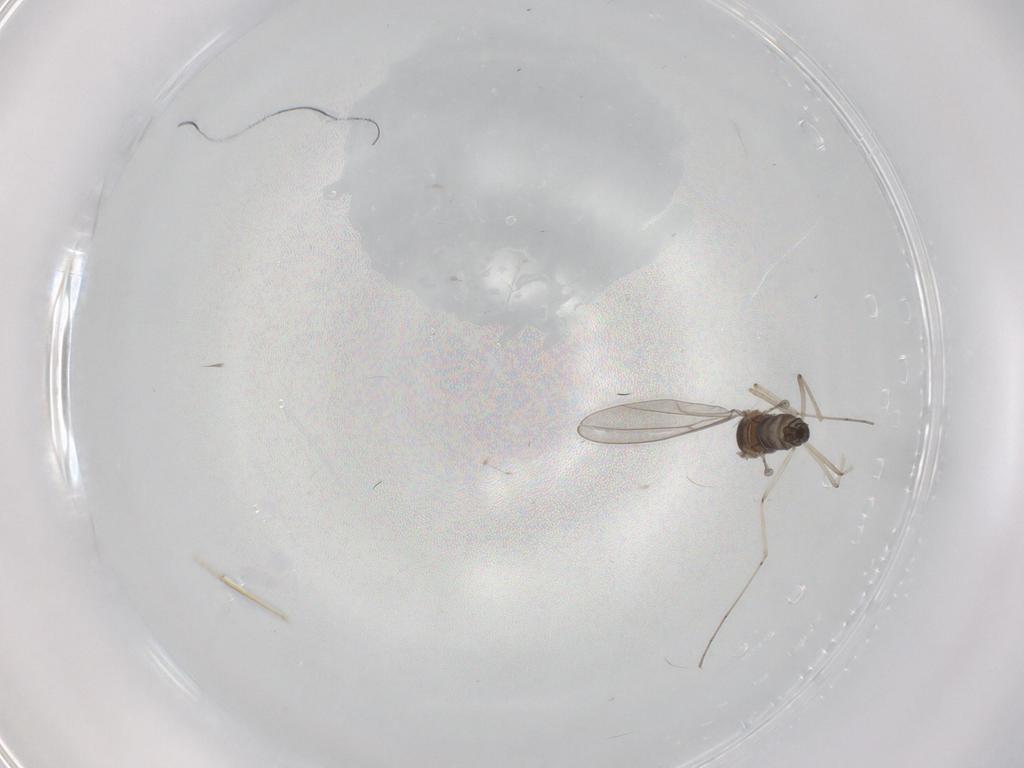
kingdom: Animalia
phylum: Arthropoda
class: Insecta
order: Diptera
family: Cecidomyiidae
